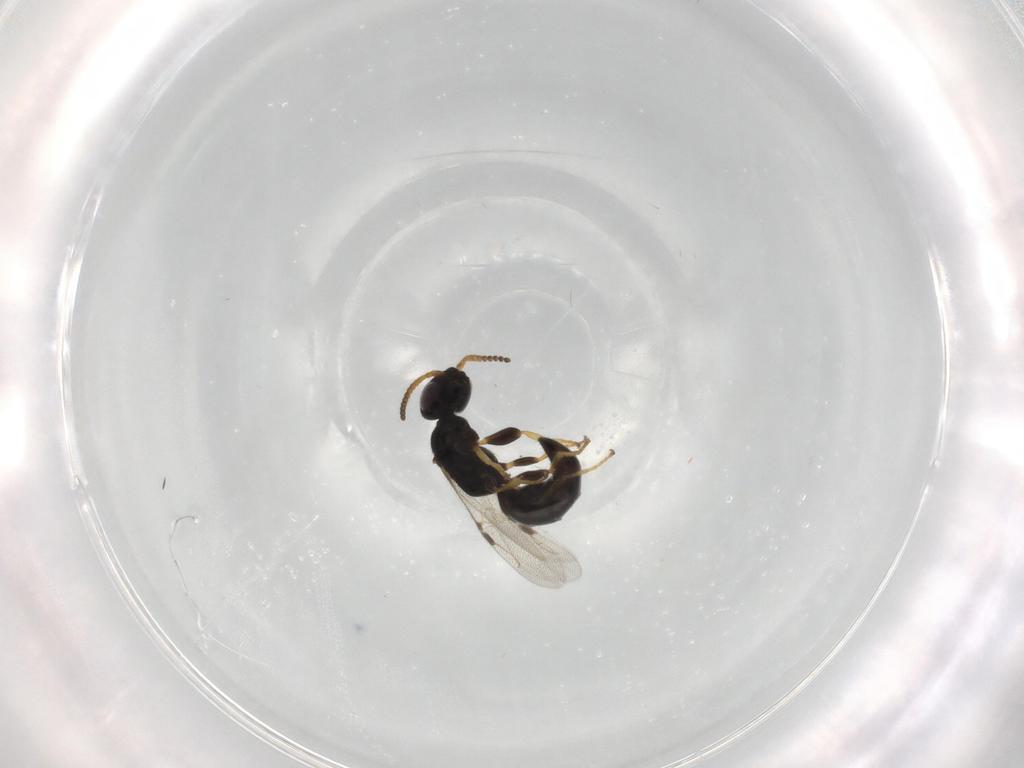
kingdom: Animalia
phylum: Arthropoda
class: Insecta
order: Hymenoptera
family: Bethylidae
